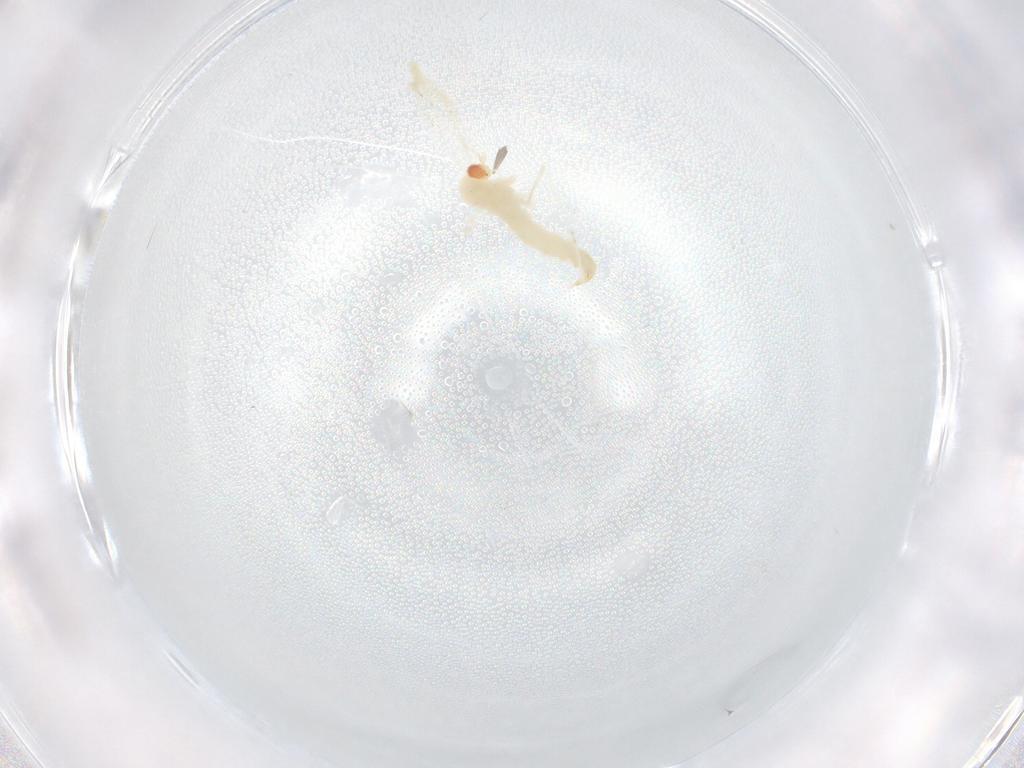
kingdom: Animalia
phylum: Arthropoda
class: Insecta
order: Diptera
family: Cecidomyiidae
